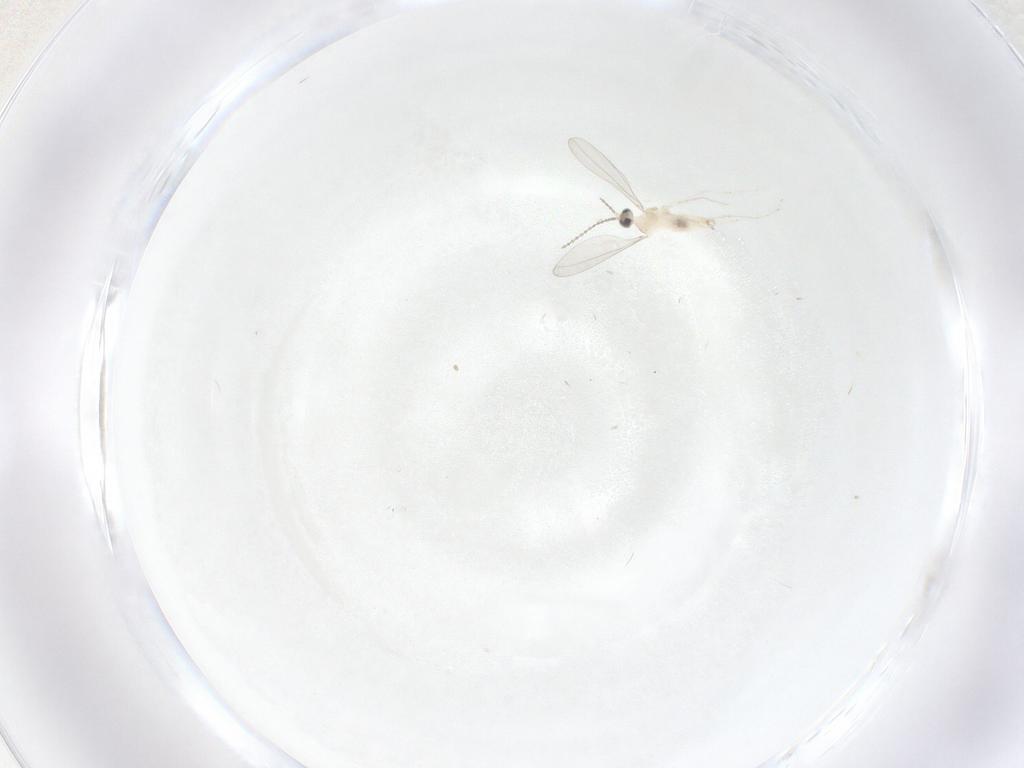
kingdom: Animalia
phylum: Arthropoda
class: Insecta
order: Diptera
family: Cecidomyiidae
